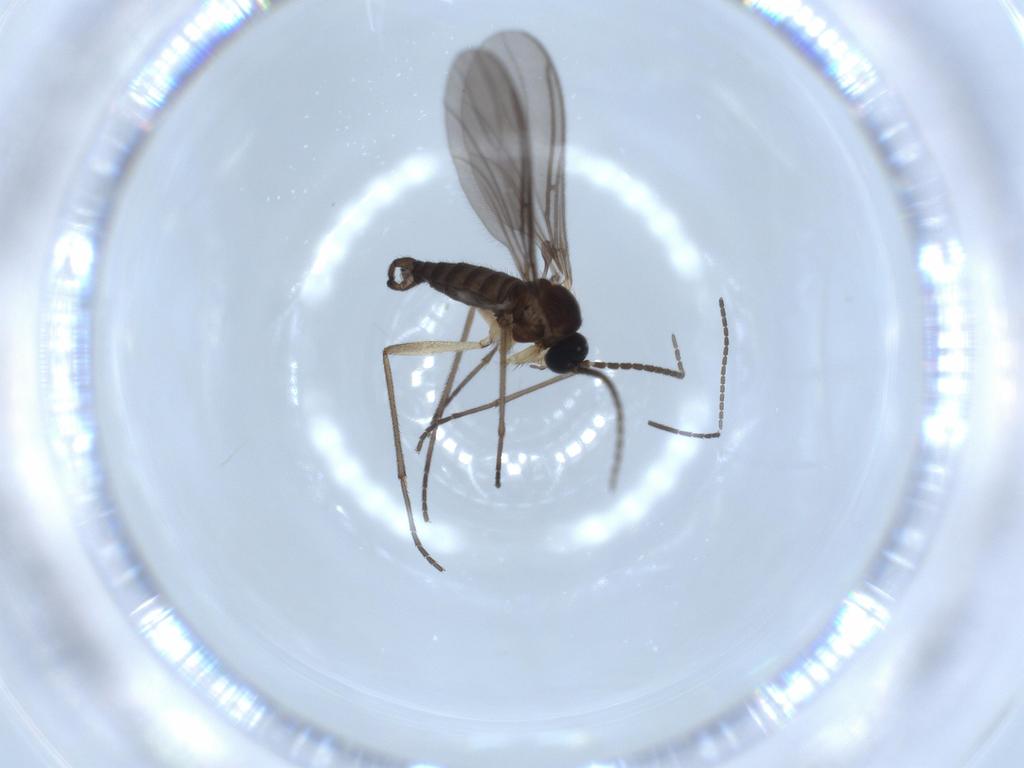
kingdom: Animalia
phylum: Arthropoda
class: Insecta
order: Diptera
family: Sciaridae
